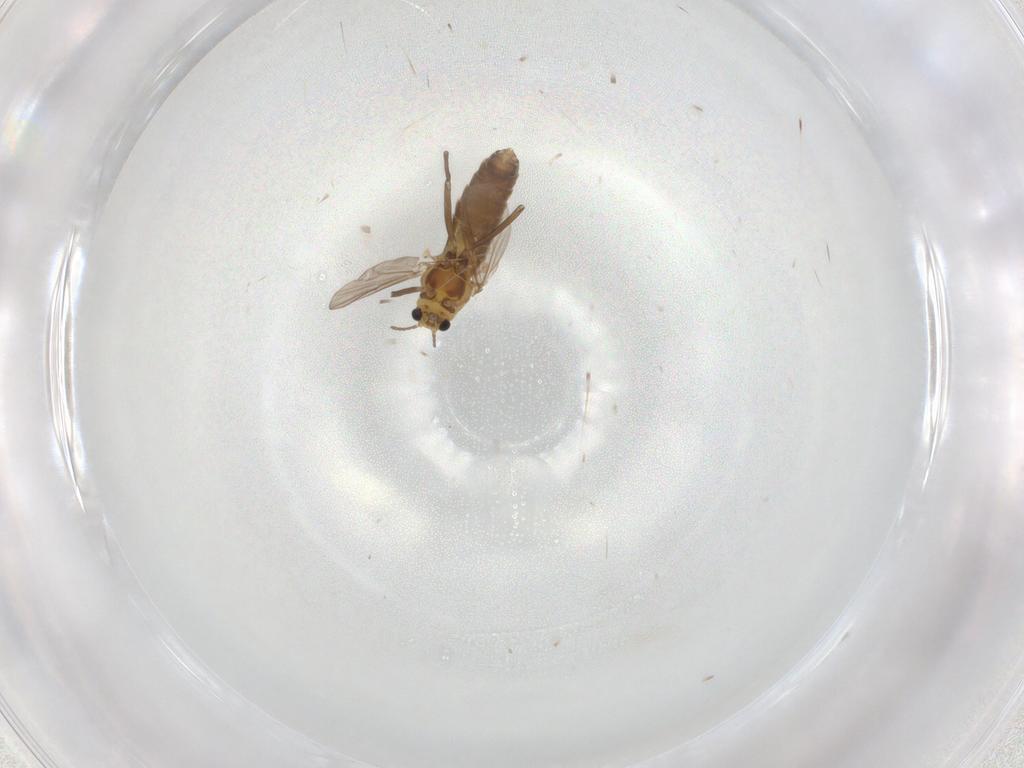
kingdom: Animalia
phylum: Arthropoda
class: Insecta
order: Diptera
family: Chironomidae
